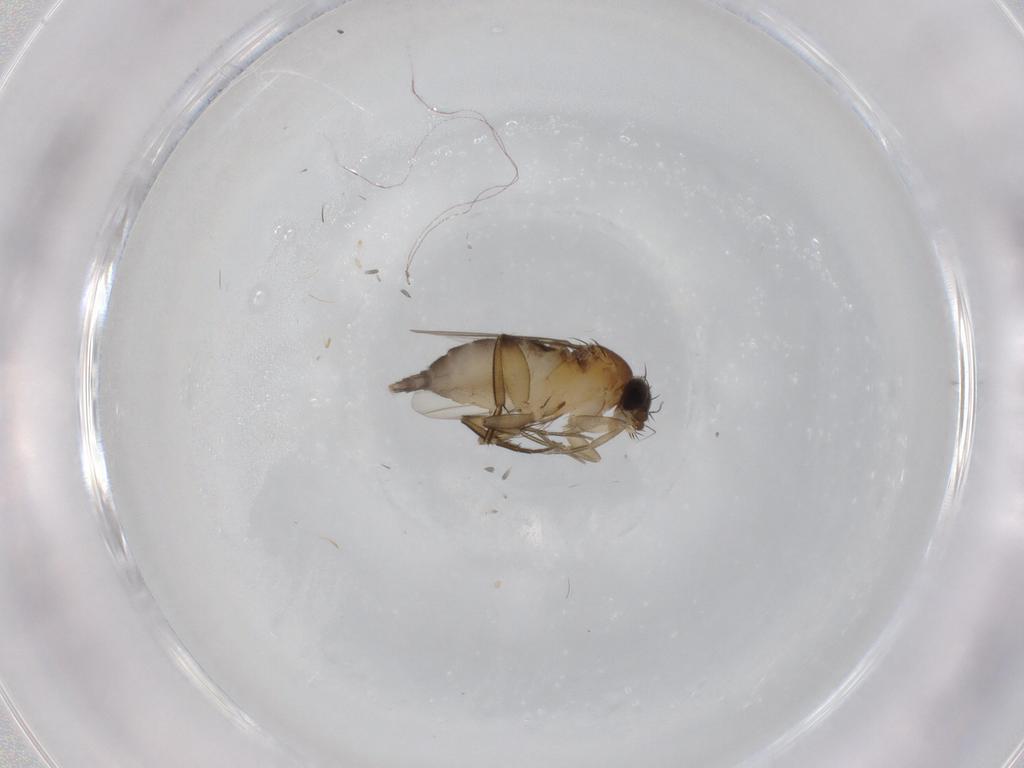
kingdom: Animalia
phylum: Arthropoda
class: Insecta
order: Diptera
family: Phoridae
